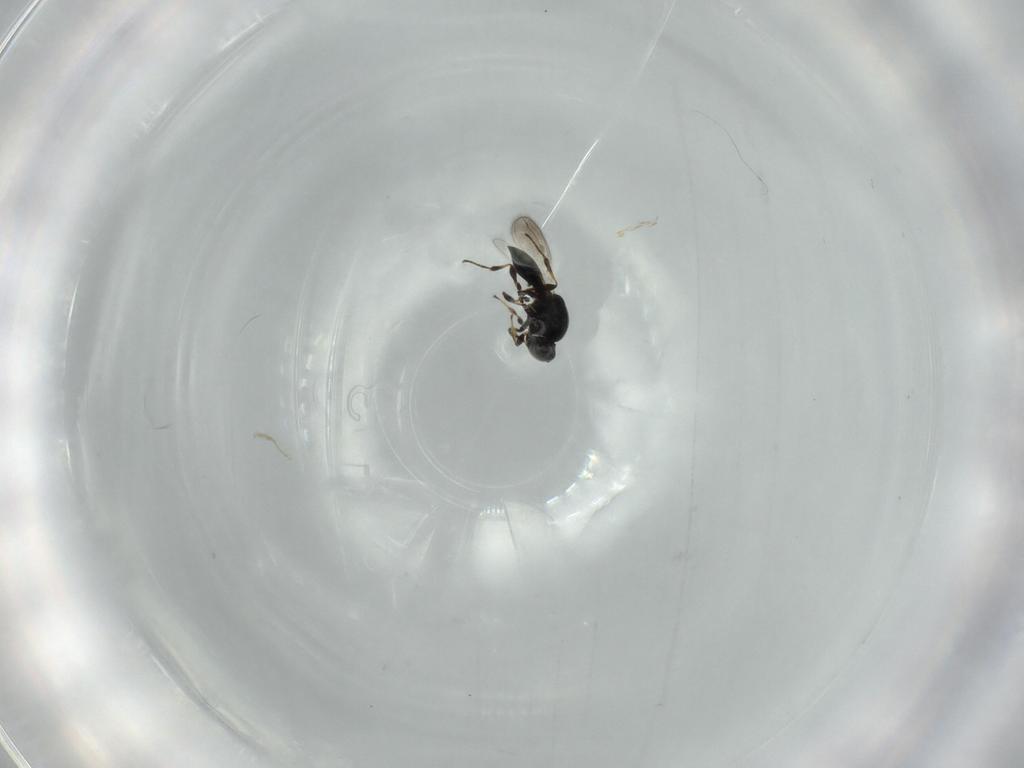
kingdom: Animalia
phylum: Arthropoda
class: Insecta
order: Hymenoptera
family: Platygastridae
